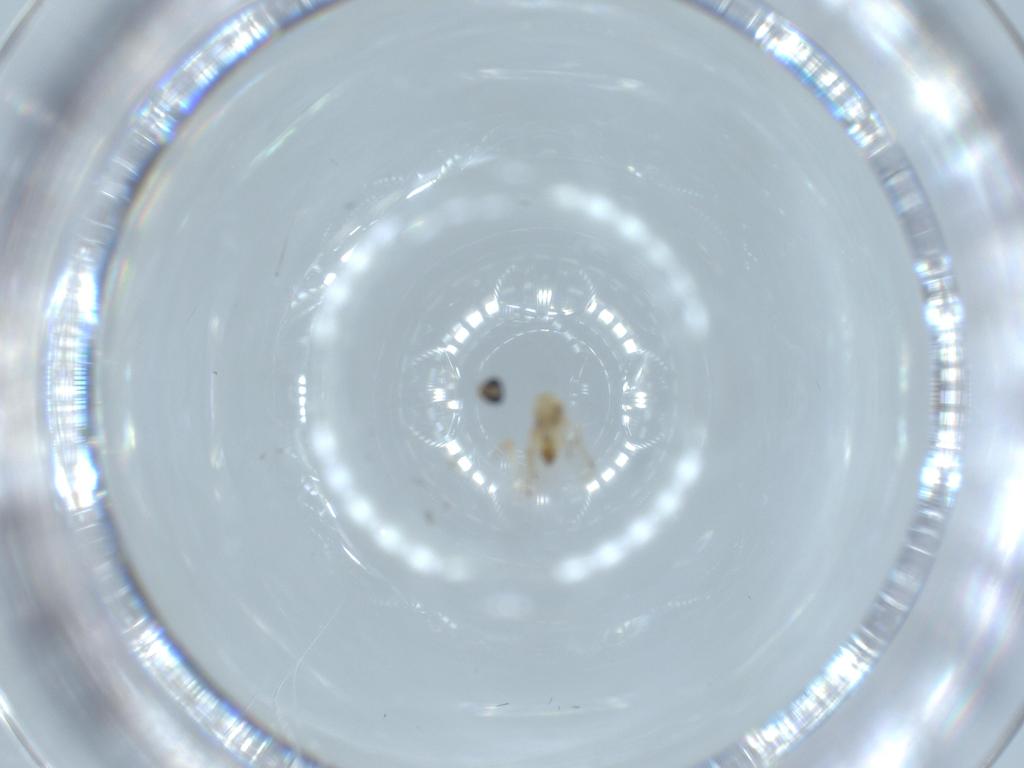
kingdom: Animalia
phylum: Arthropoda
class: Insecta
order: Hymenoptera
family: Trichogrammatidae
